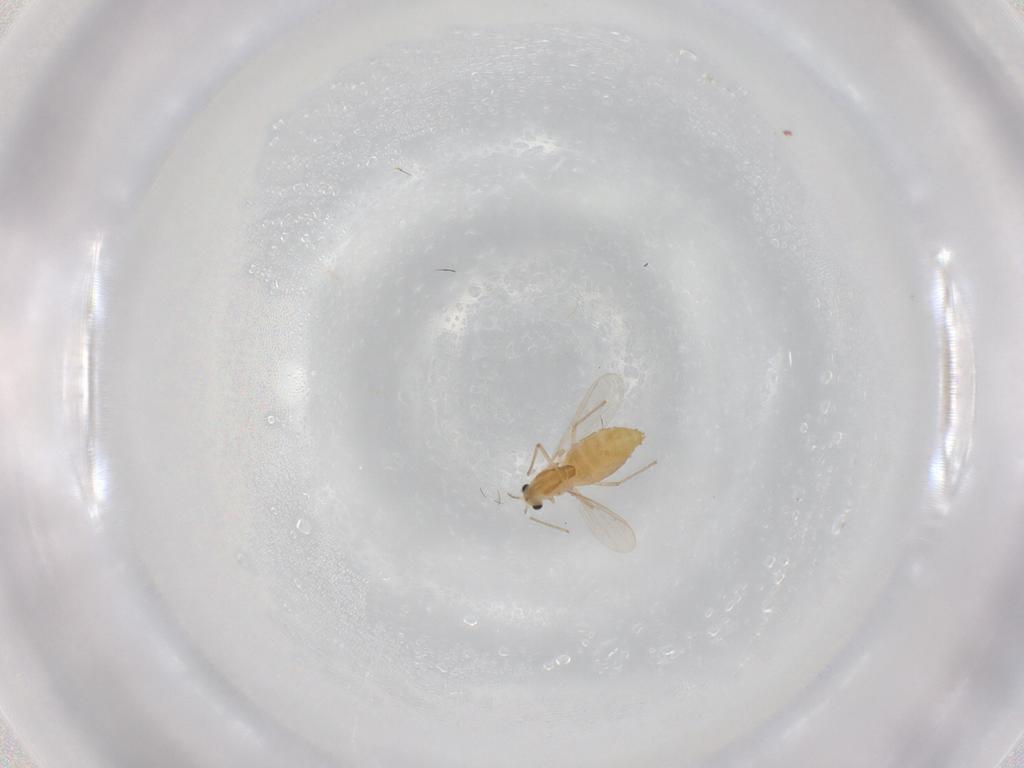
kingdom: Animalia
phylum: Arthropoda
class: Insecta
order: Diptera
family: Chironomidae
